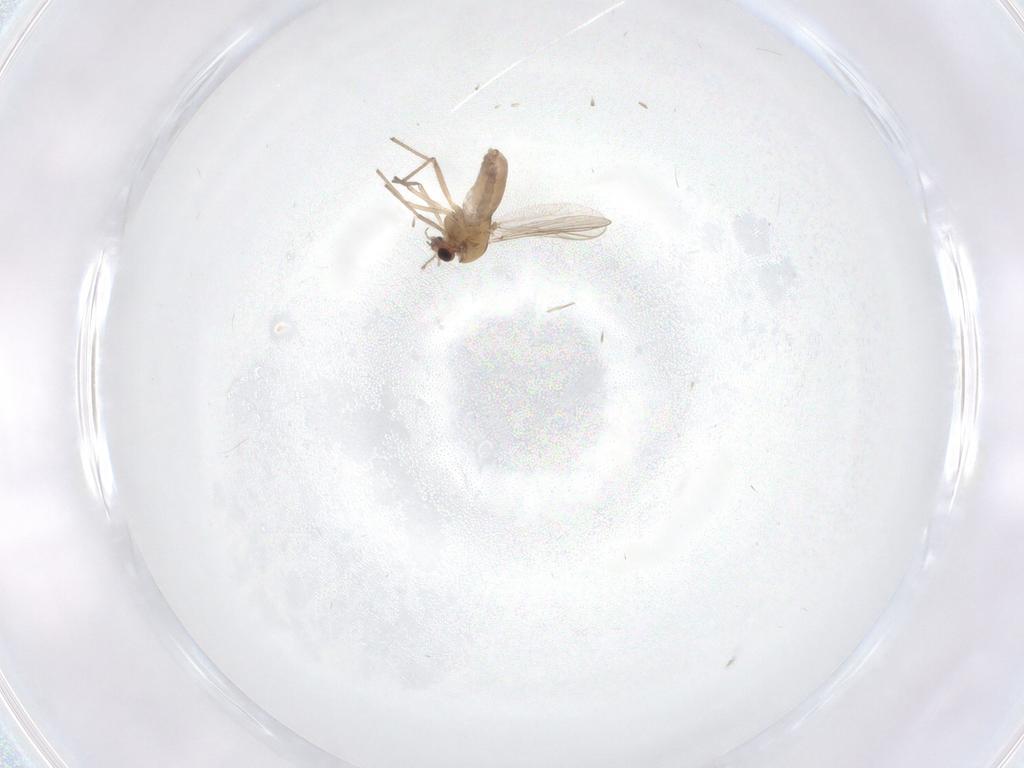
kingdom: Animalia
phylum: Arthropoda
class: Insecta
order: Diptera
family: Chironomidae
